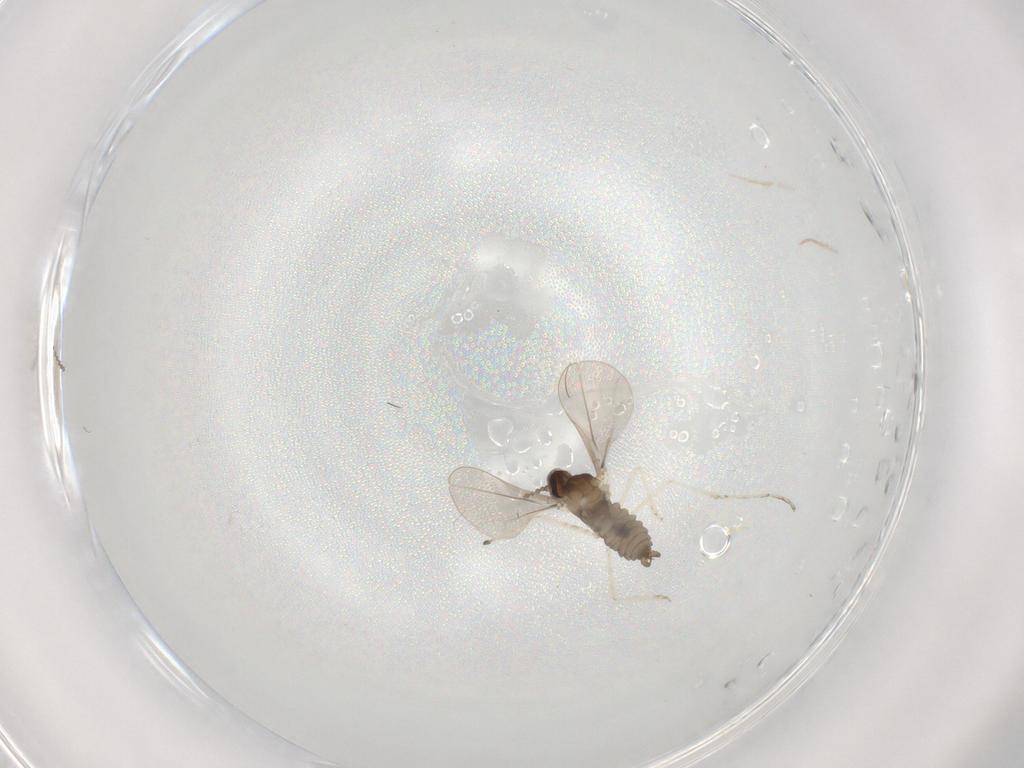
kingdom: Animalia
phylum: Arthropoda
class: Insecta
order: Diptera
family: Cecidomyiidae
